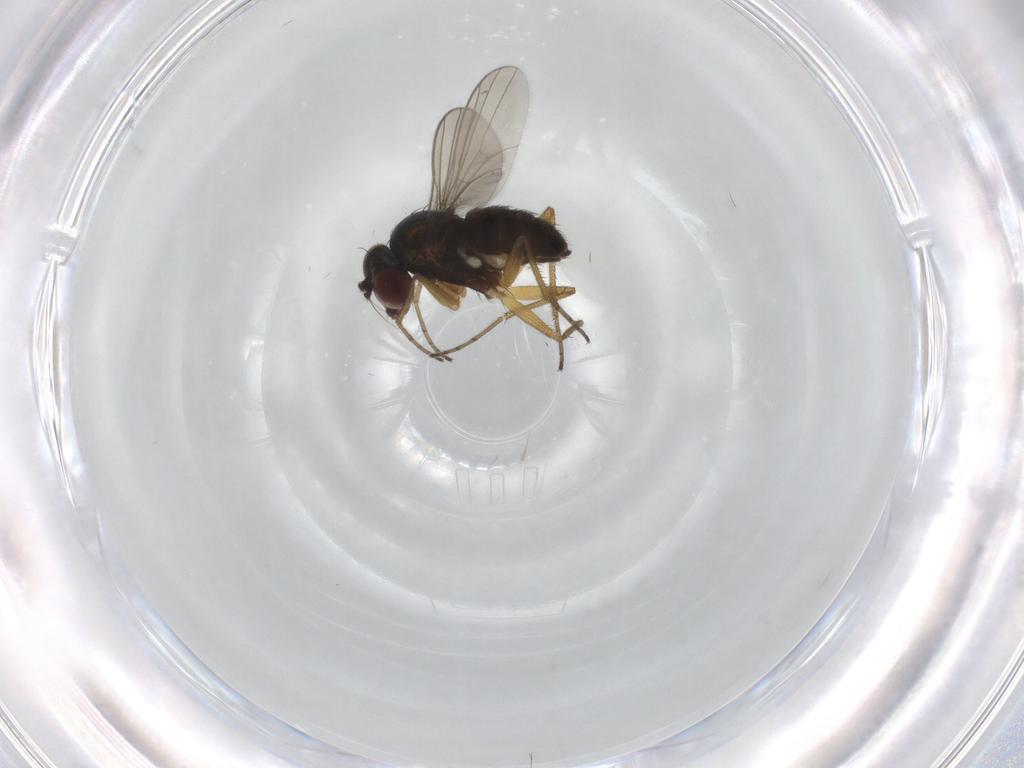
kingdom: Animalia
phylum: Arthropoda
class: Insecta
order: Diptera
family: Dolichopodidae
